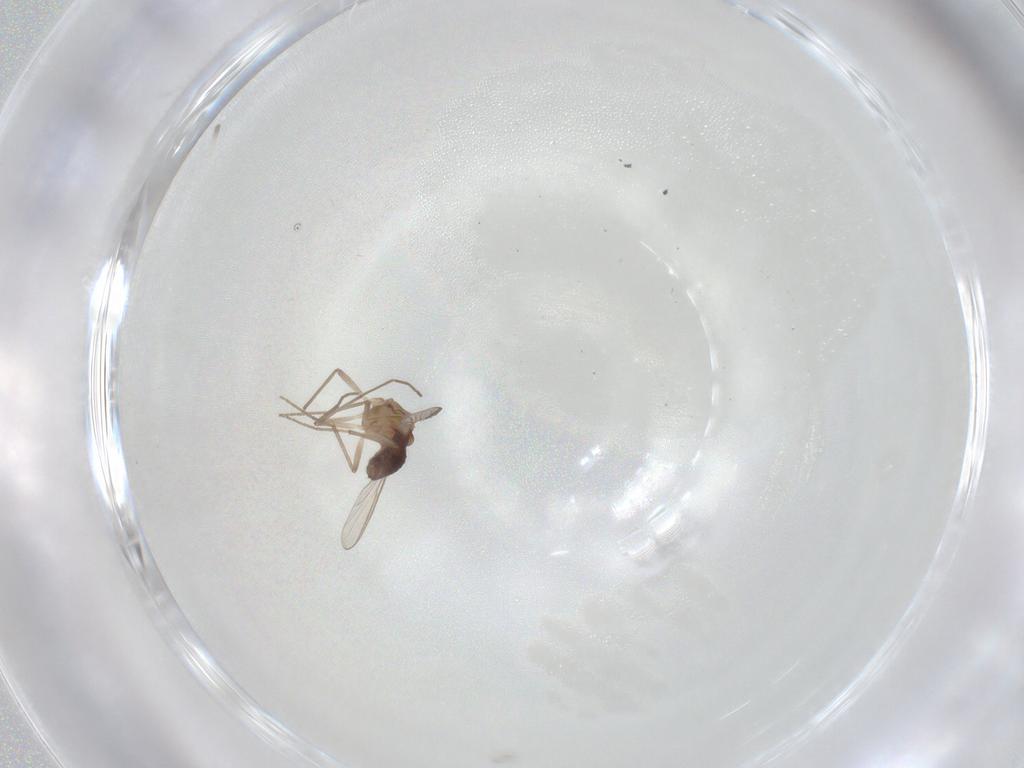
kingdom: Animalia
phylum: Arthropoda
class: Insecta
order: Diptera
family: Chironomidae
